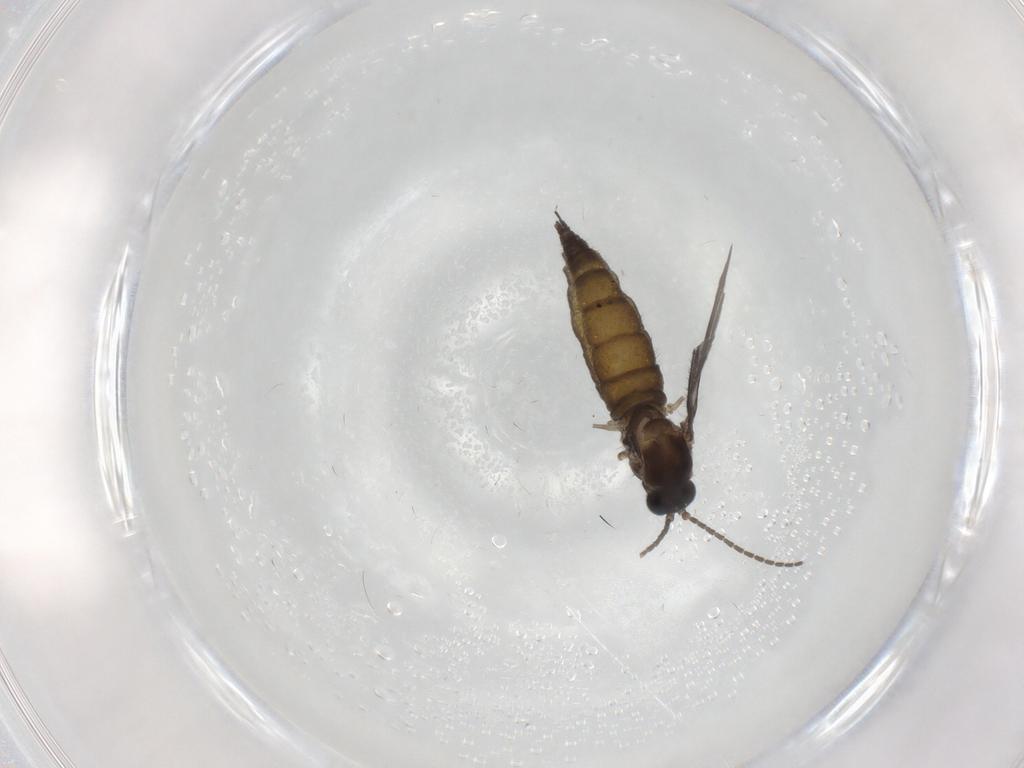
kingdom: Animalia
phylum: Arthropoda
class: Insecta
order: Diptera
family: Sciaridae
